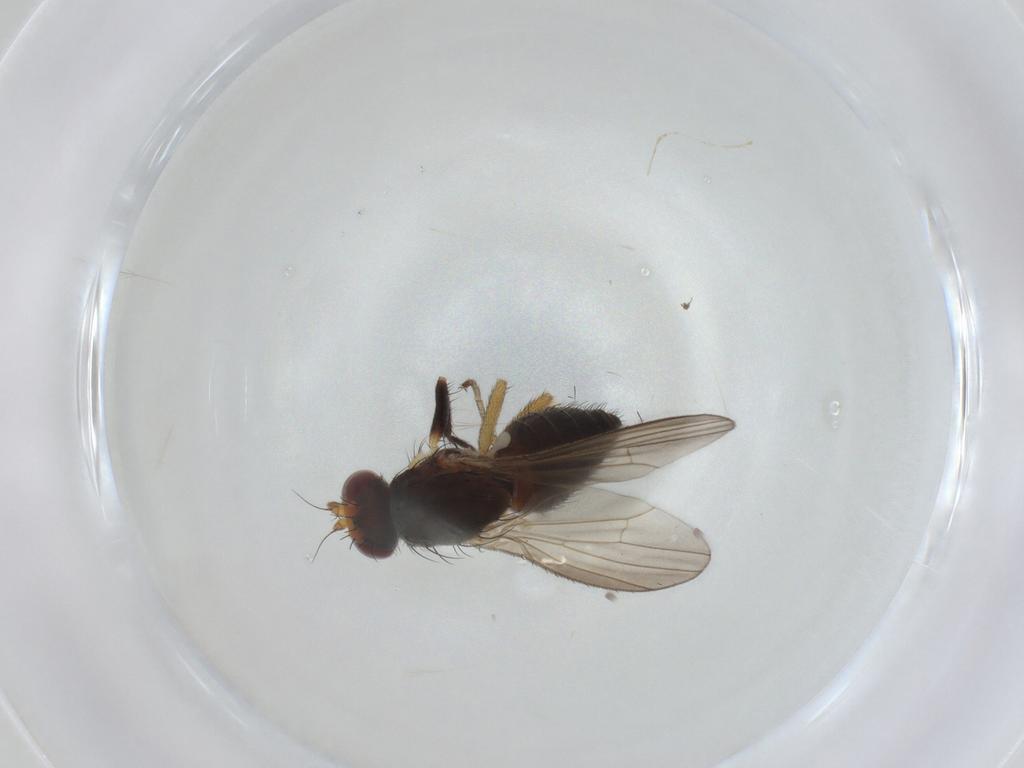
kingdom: Animalia
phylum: Arthropoda
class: Insecta
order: Diptera
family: Heleomyzidae
